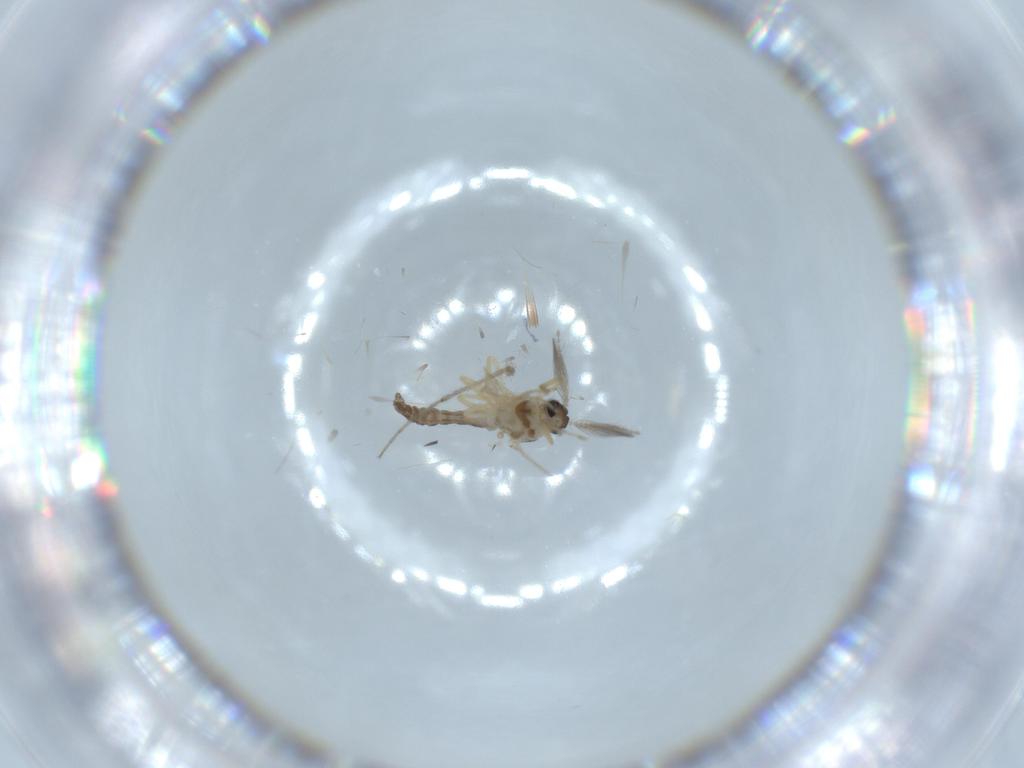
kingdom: Animalia
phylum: Arthropoda
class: Insecta
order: Diptera
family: Ceratopogonidae
